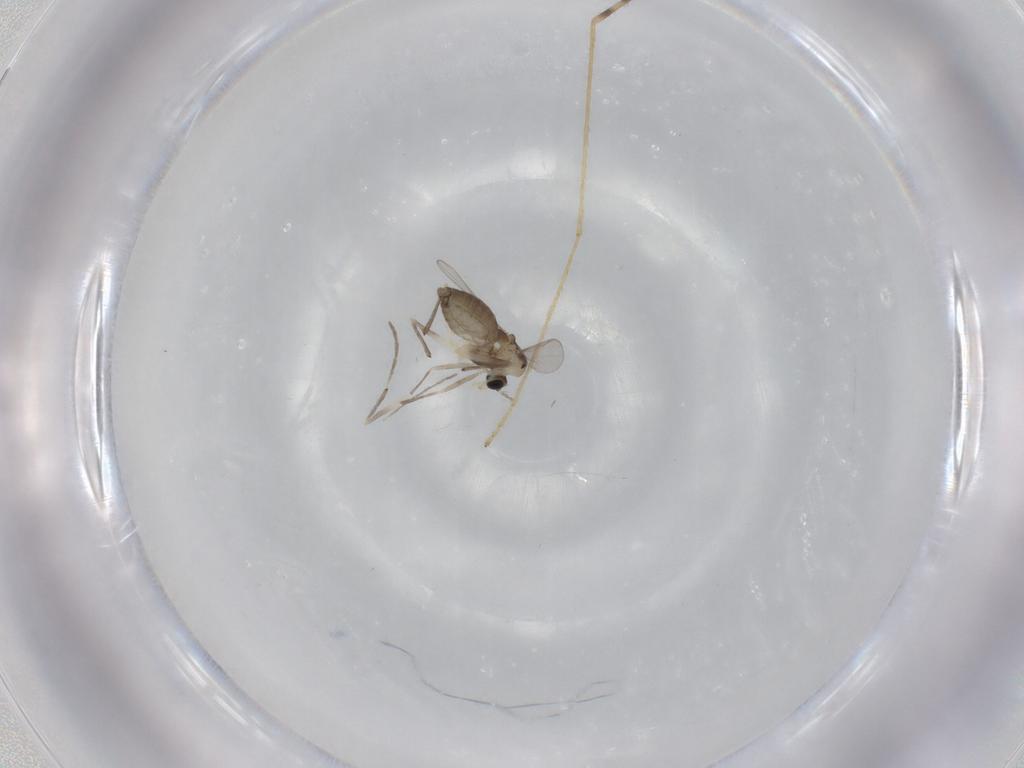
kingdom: Animalia
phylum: Arthropoda
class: Insecta
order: Diptera
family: Chironomidae
